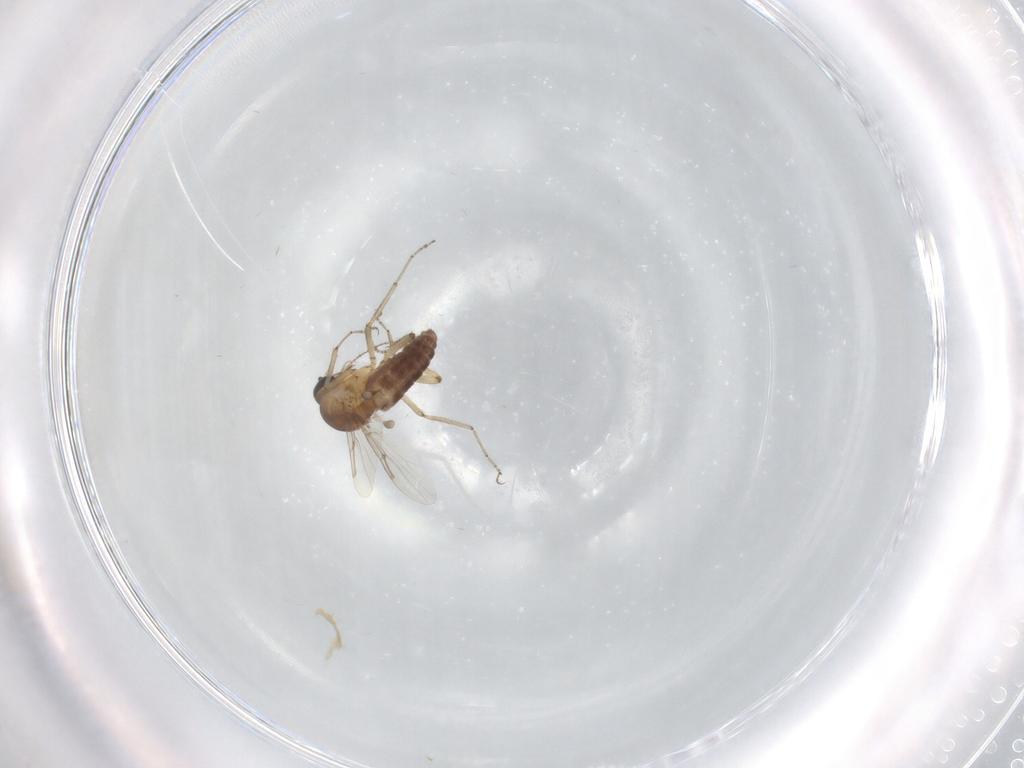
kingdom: Animalia
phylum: Arthropoda
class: Insecta
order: Diptera
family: Ceratopogonidae
